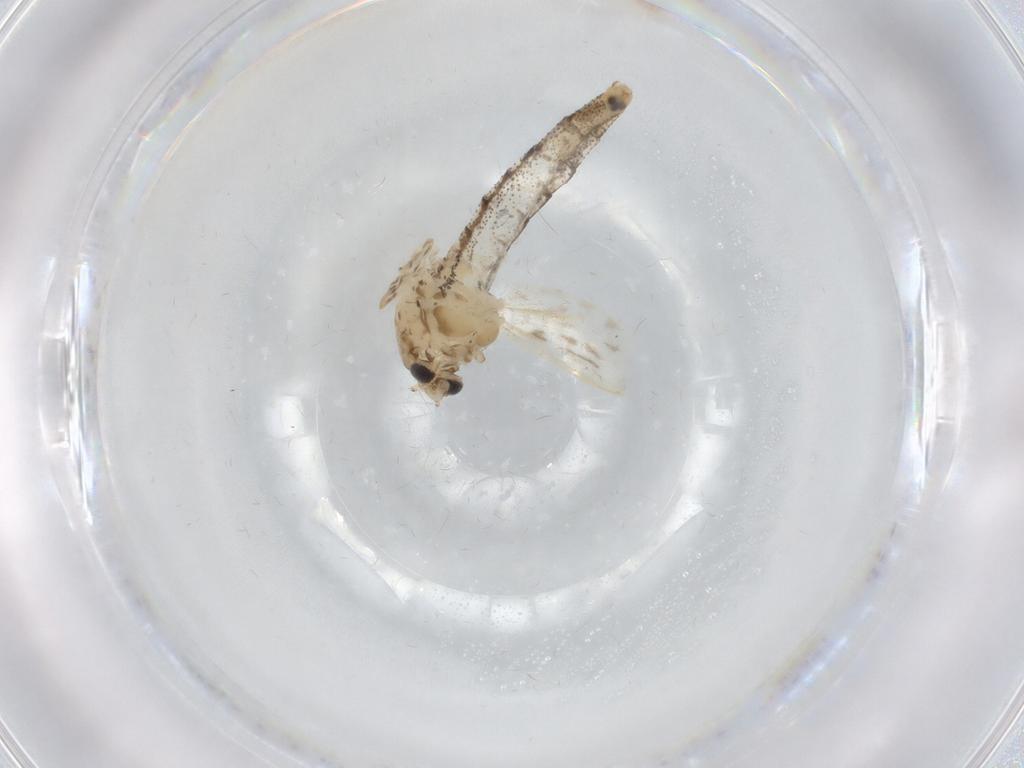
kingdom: Animalia
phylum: Arthropoda
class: Insecta
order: Diptera
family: Chaoboridae
